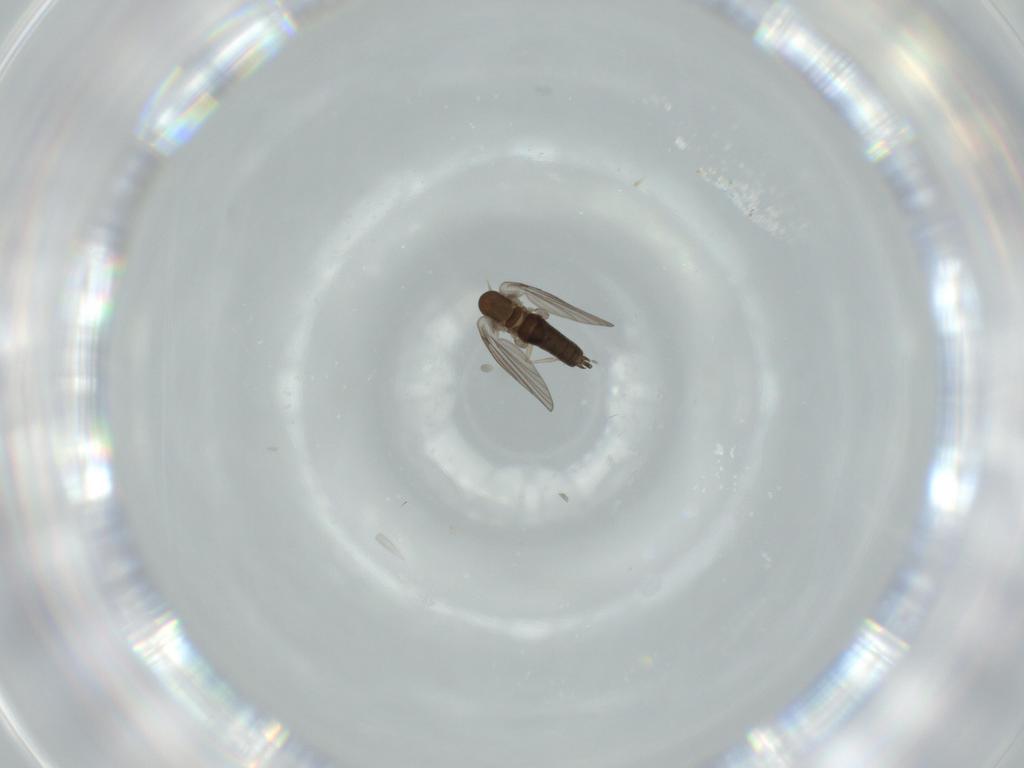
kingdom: Animalia
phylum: Arthropoda
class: Insecta
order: Diptera
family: Psychodidae
